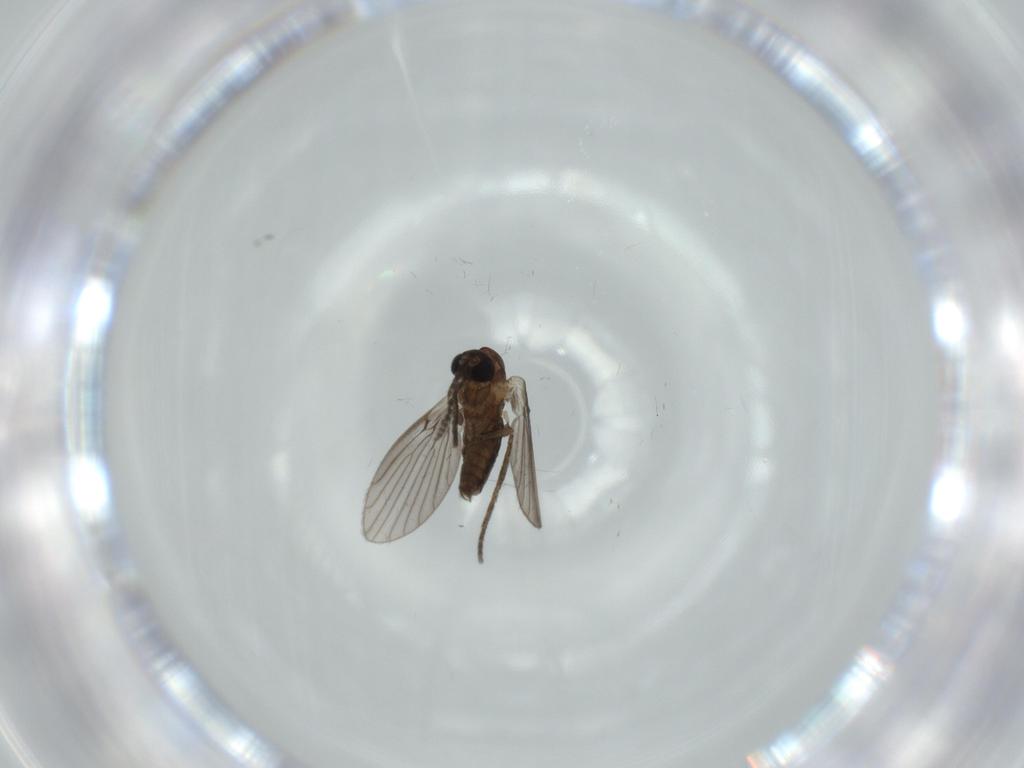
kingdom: Animalia
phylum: Arthropoda
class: Insecta
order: Diptera
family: Psychodidae
